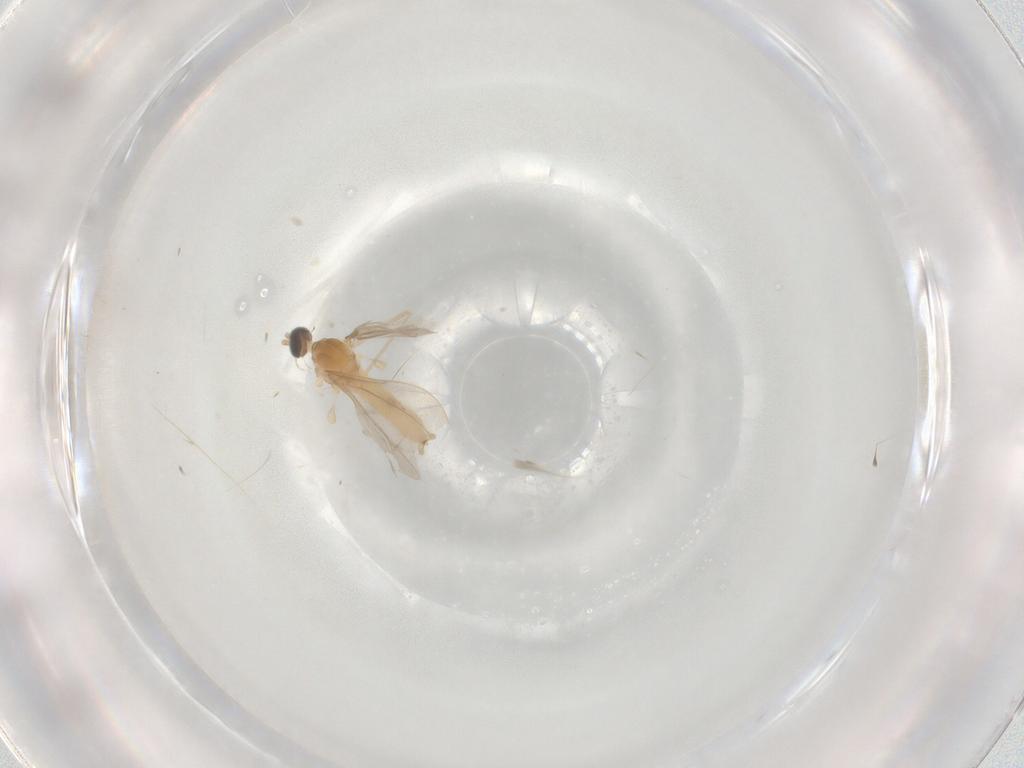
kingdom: Animalia
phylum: Arthropoda
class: Insecta
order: Diptera
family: Cecidomyiidae
